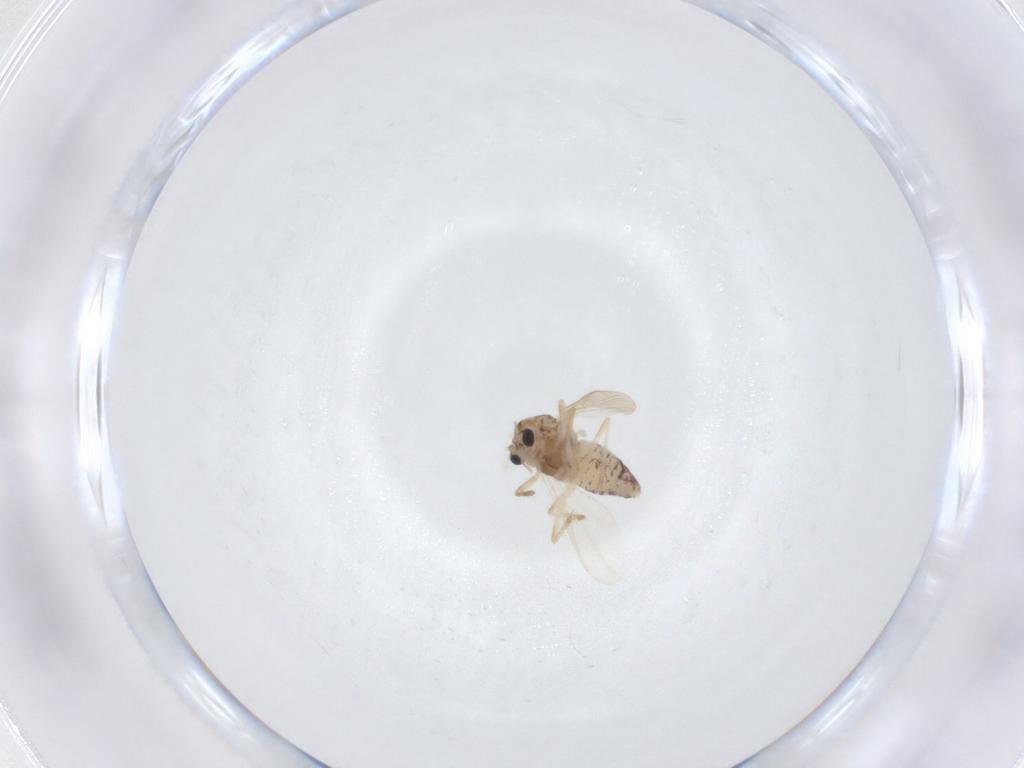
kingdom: Animalia
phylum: Arthropoda
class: Insecta
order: Diptera
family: Chironomidae
